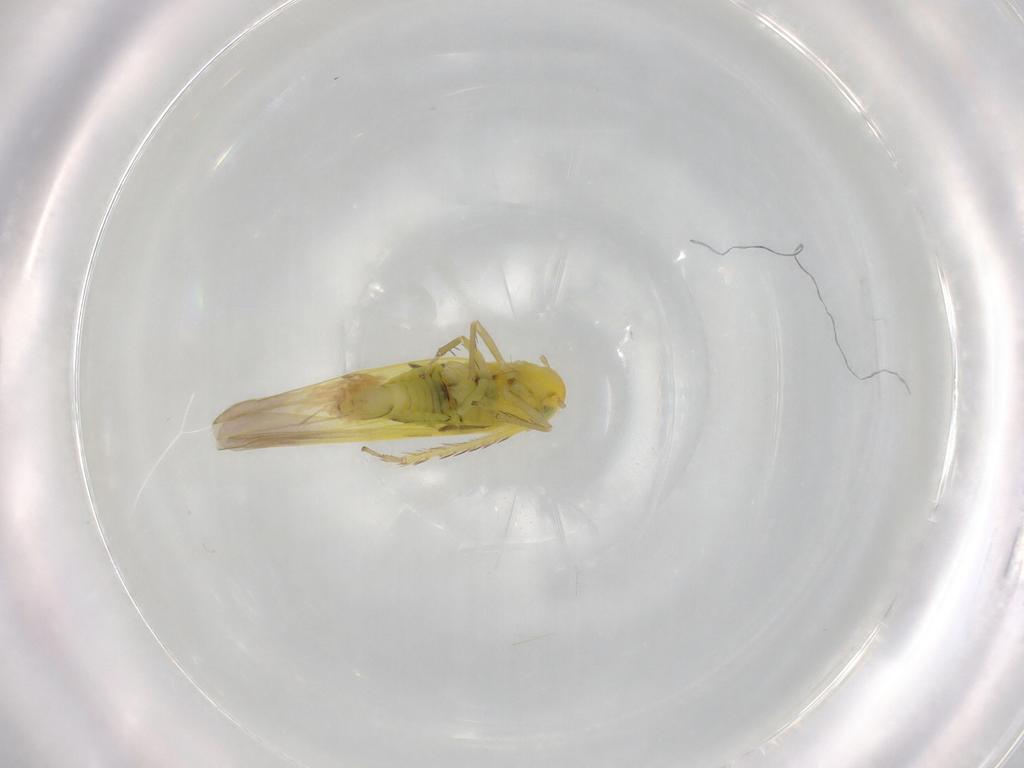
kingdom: Animalia
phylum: Arthropoda
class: Insecta
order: Hemiptera
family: Cicadellidae
